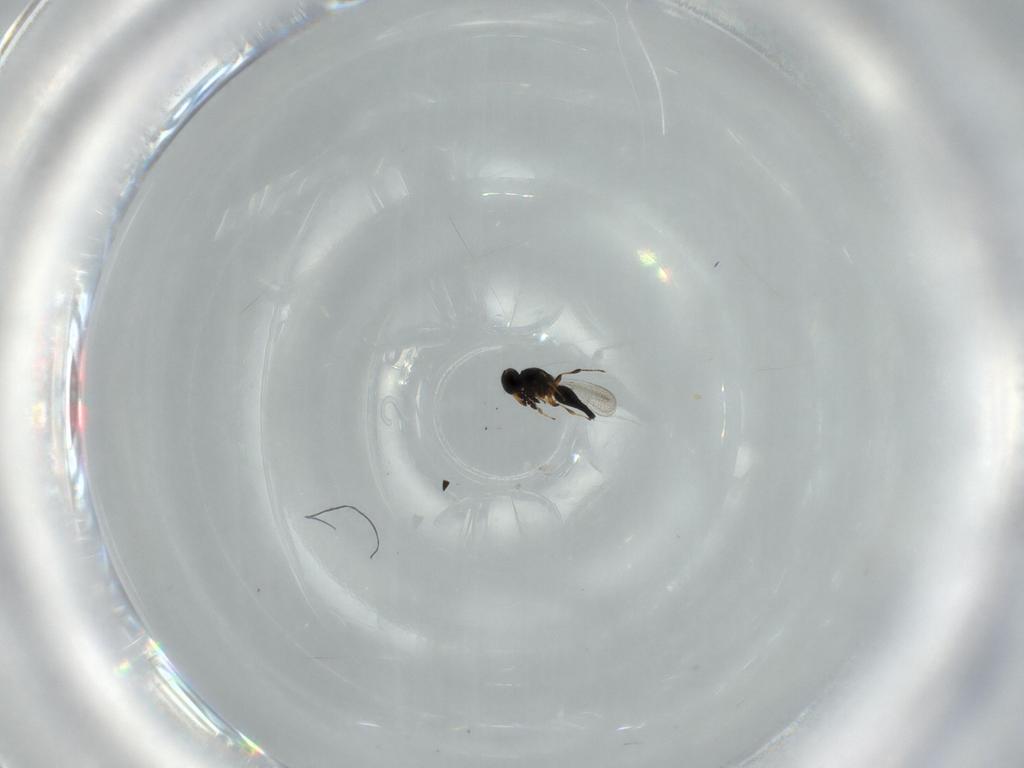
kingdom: Animalia
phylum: Arthropoda
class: Insecta
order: Hymenoptera
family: Platygastridae
